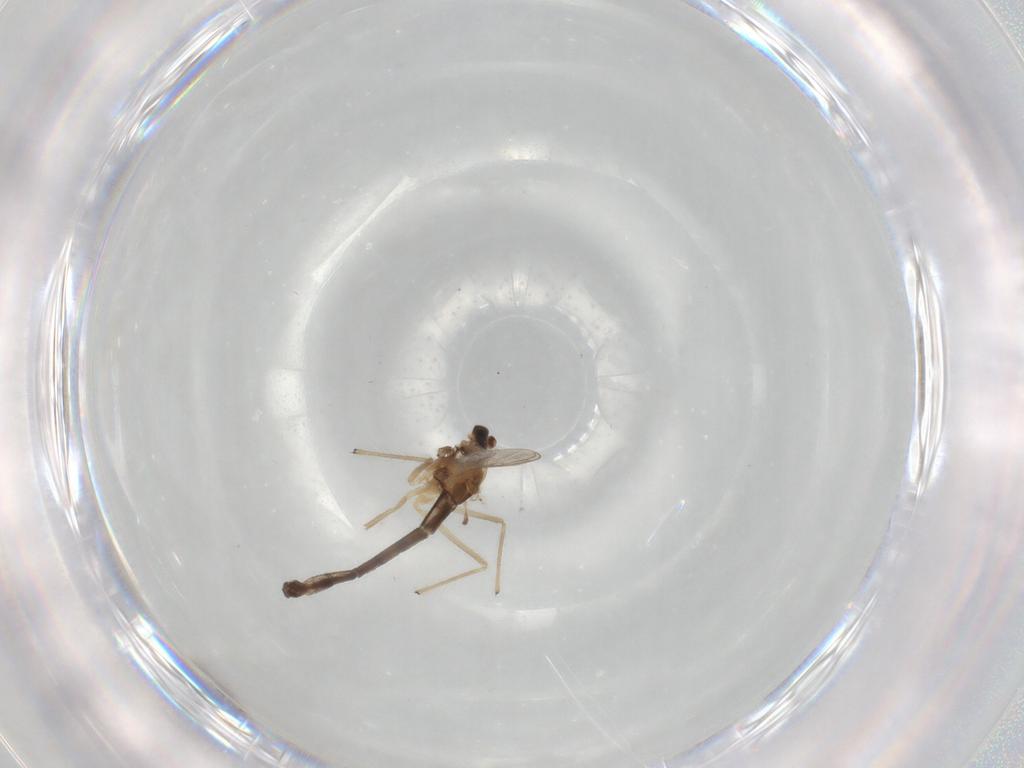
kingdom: Animalia
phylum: Arthropoda
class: Insecta
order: Diptera
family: Chironomidae
